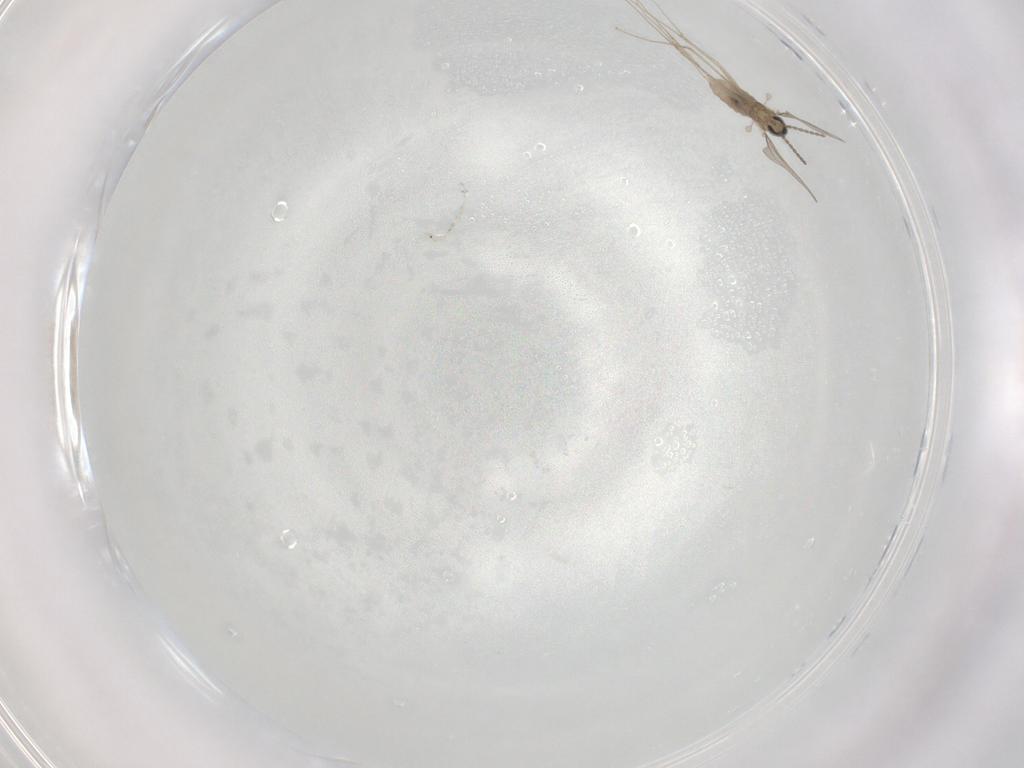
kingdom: Animalia
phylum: Arthropoda
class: Insecta
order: Diptera
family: Cecidomyiidae
